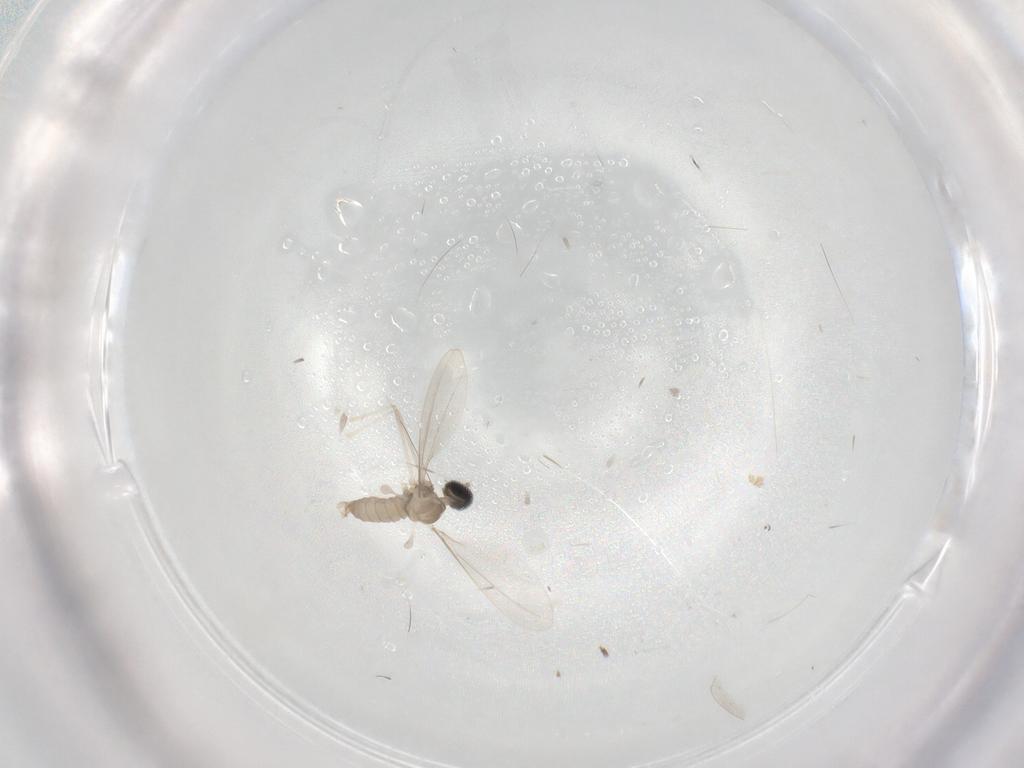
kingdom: Animalia
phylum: Arthropoda
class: Insecta
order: Diptera
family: Cecidomyiidae
